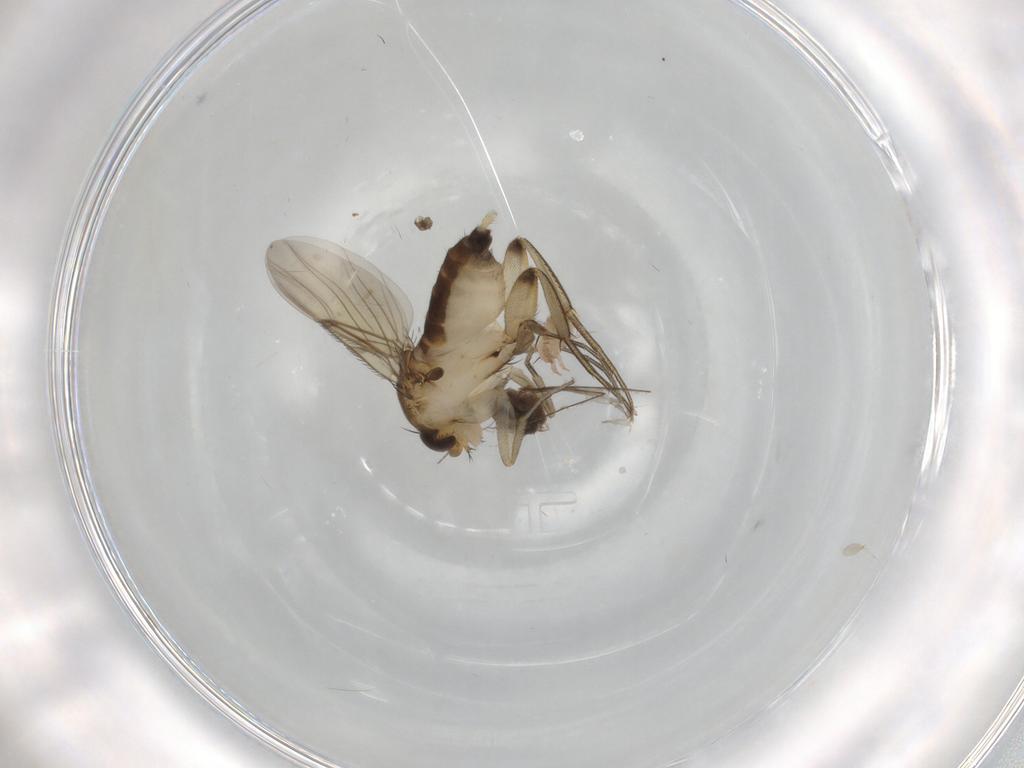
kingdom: Animalia
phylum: Arthropoda
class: Insecta
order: Diptera
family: Phoridae
